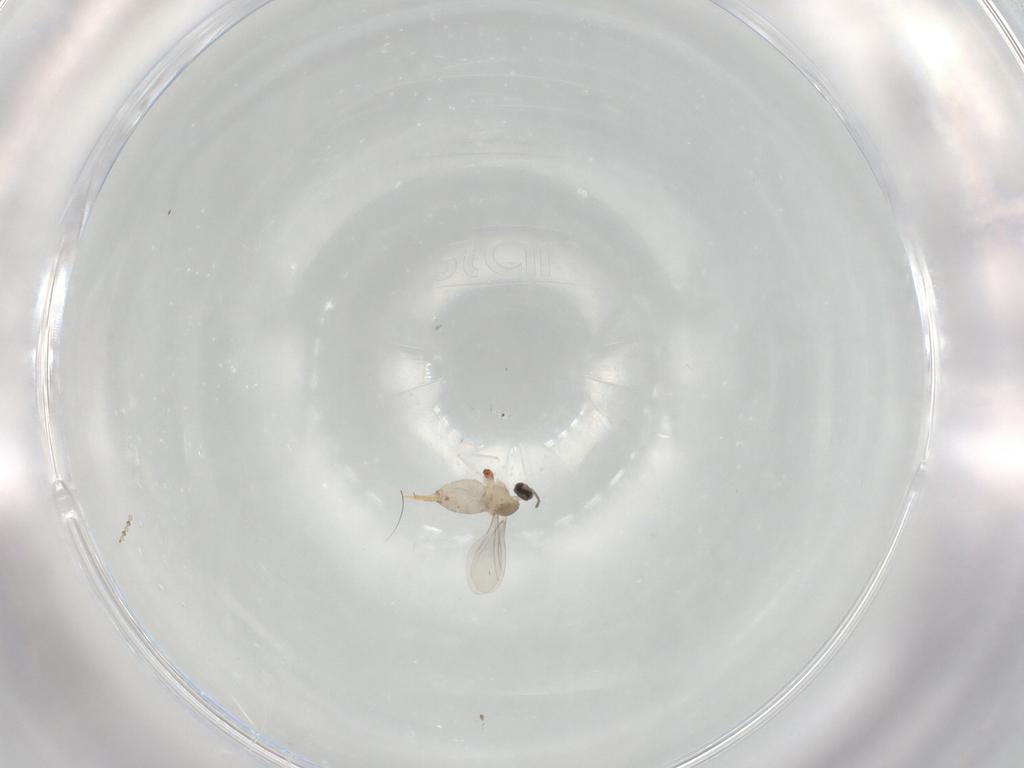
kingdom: Animalia
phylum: Arthropoda
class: Insecta
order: Diptera
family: Cecidomyiidae
